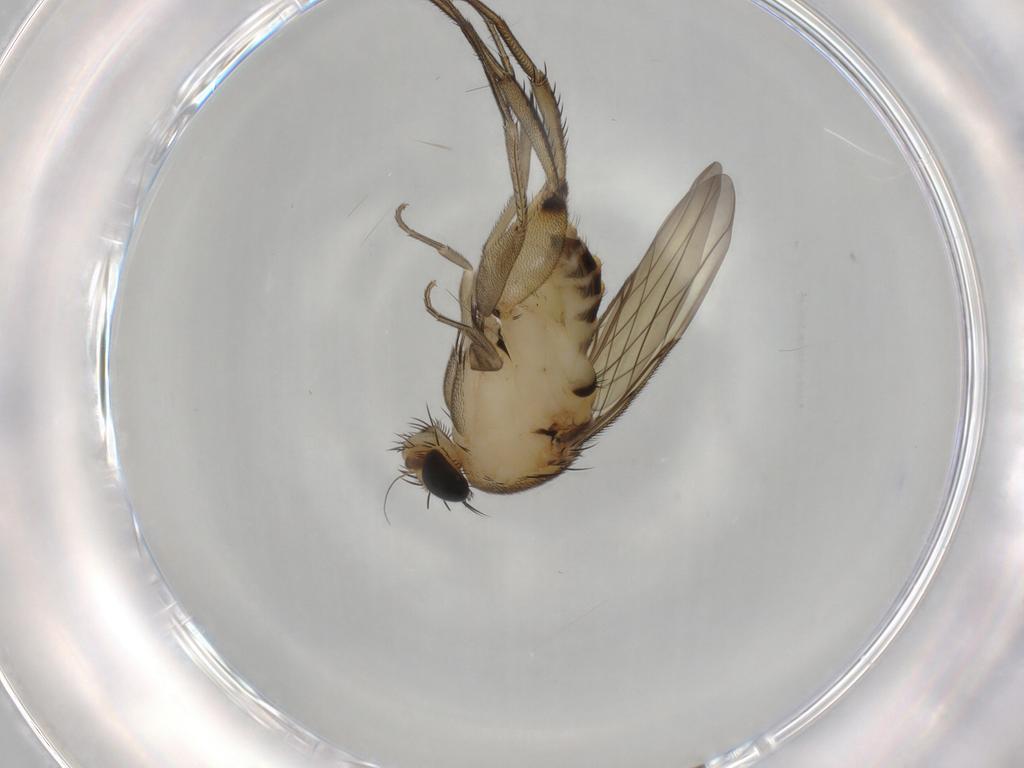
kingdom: Animalia
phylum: Arthropoda
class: Insecta
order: Diptera
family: Phoridae
